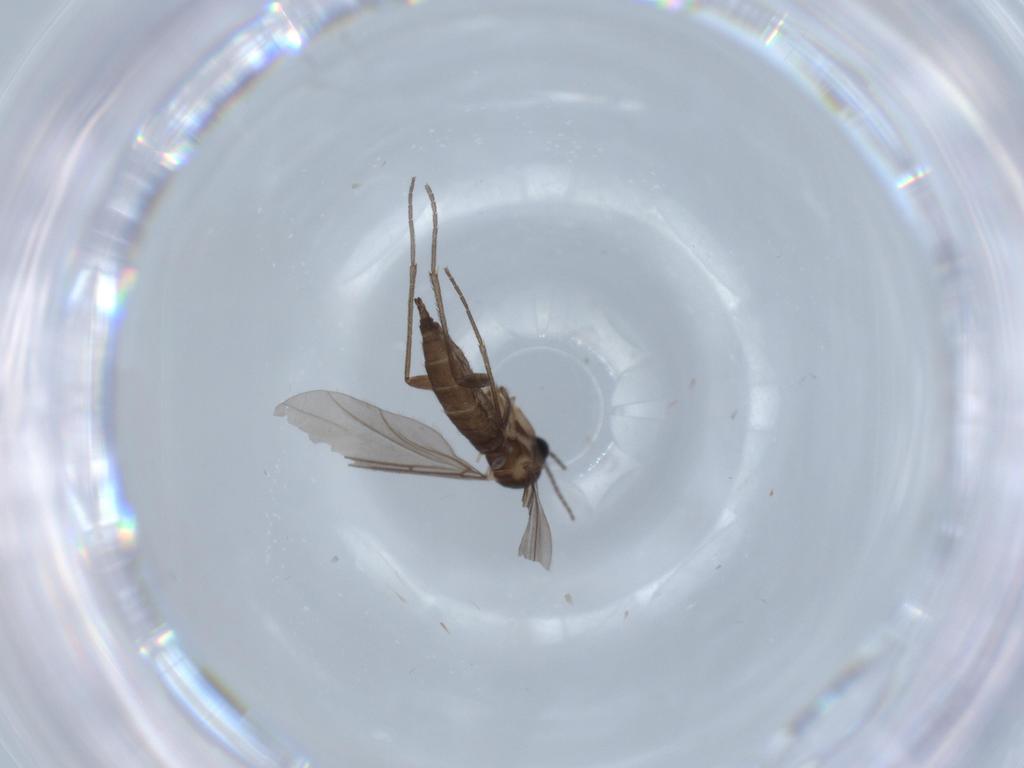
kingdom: Animalia
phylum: Arthropoda
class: Insecta
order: Diptera
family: Sciaridae
